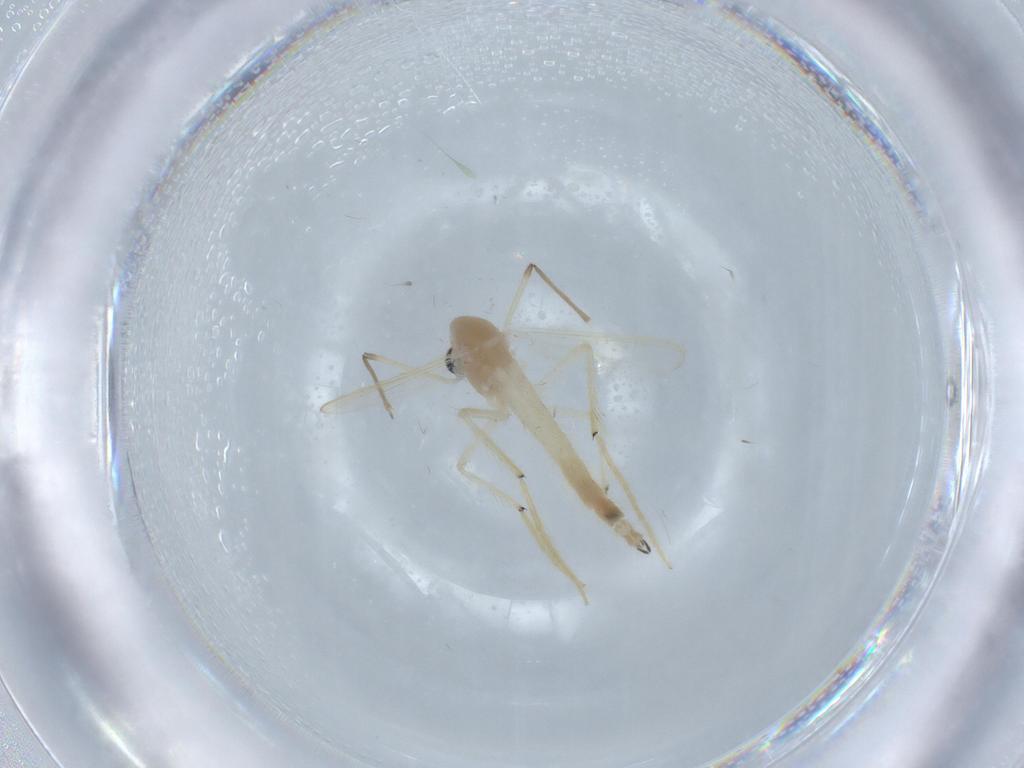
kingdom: Animalia
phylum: Arthropoda
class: Insecta
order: Diptera
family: Chironomidae
